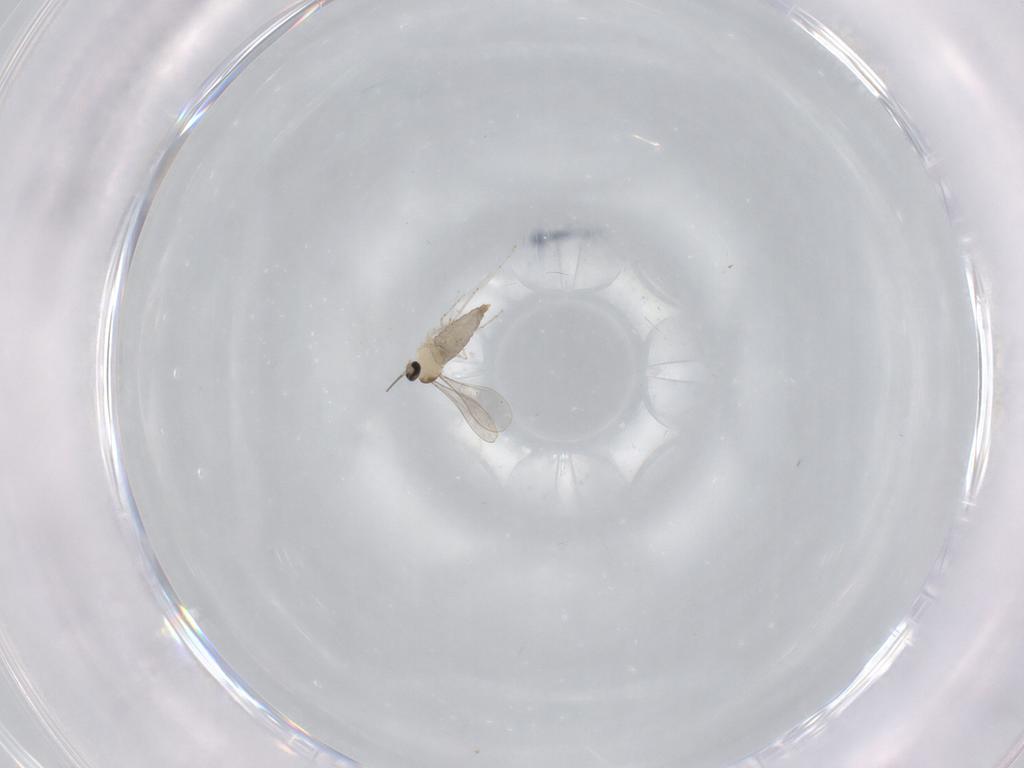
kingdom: Animalia
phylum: Arthropoda
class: Insecta
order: Diptera
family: Cecidomyiidae
